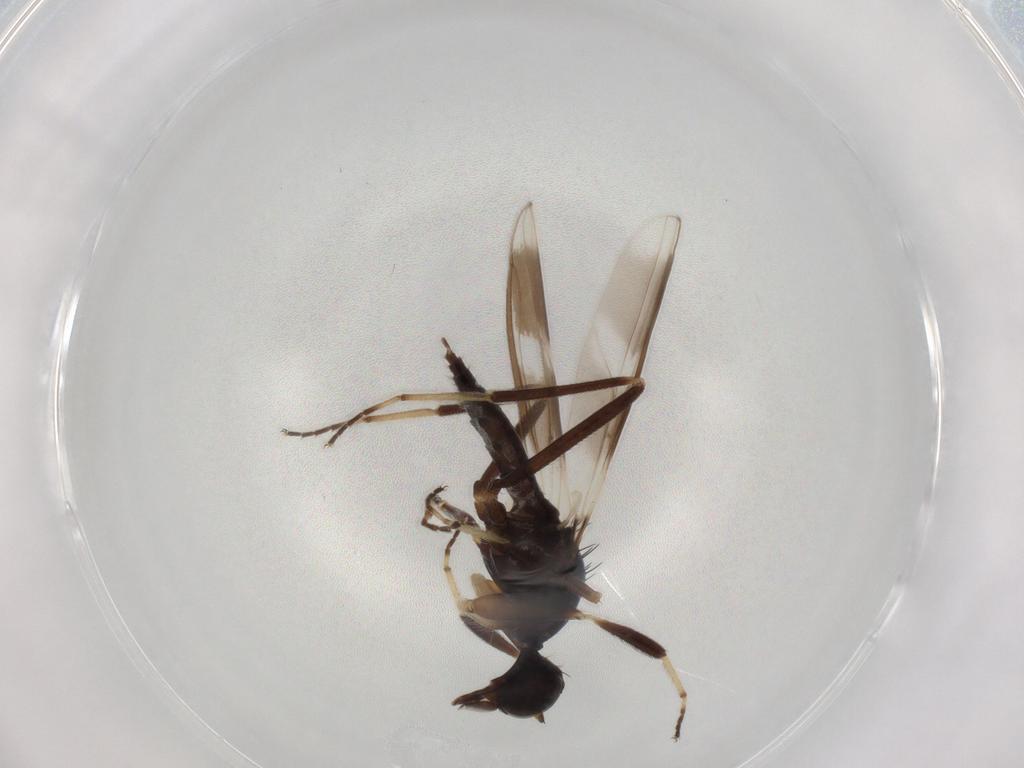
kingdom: Animalia
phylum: Arthropoda
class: Insecta
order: Diptera
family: Hybotidae
